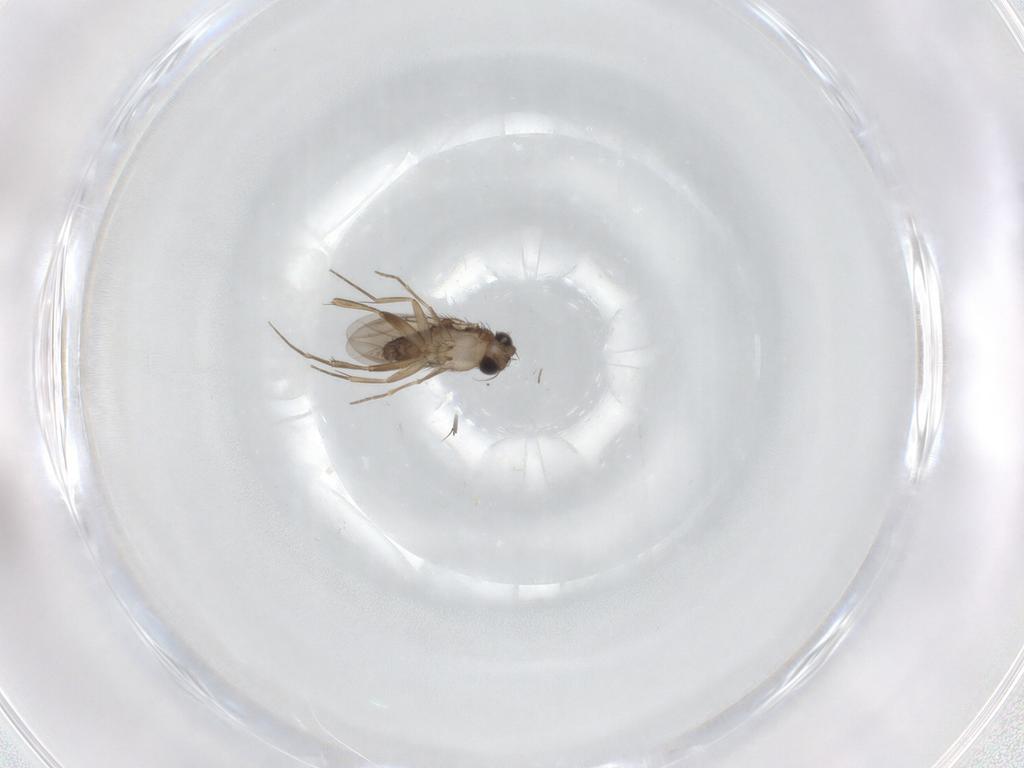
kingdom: Animalia
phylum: Arthropoda
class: Insecta
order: Diptera
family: Phoridae
